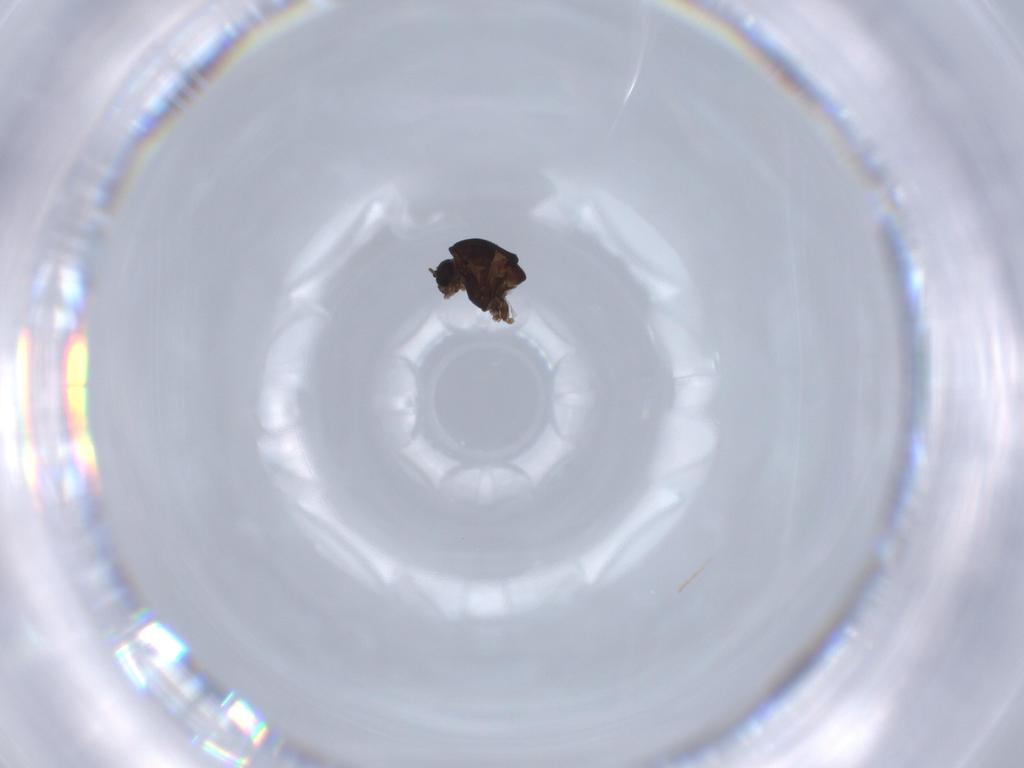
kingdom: Animalia
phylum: Arthropoda
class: Insecta
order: Diptera
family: Chironomidae
